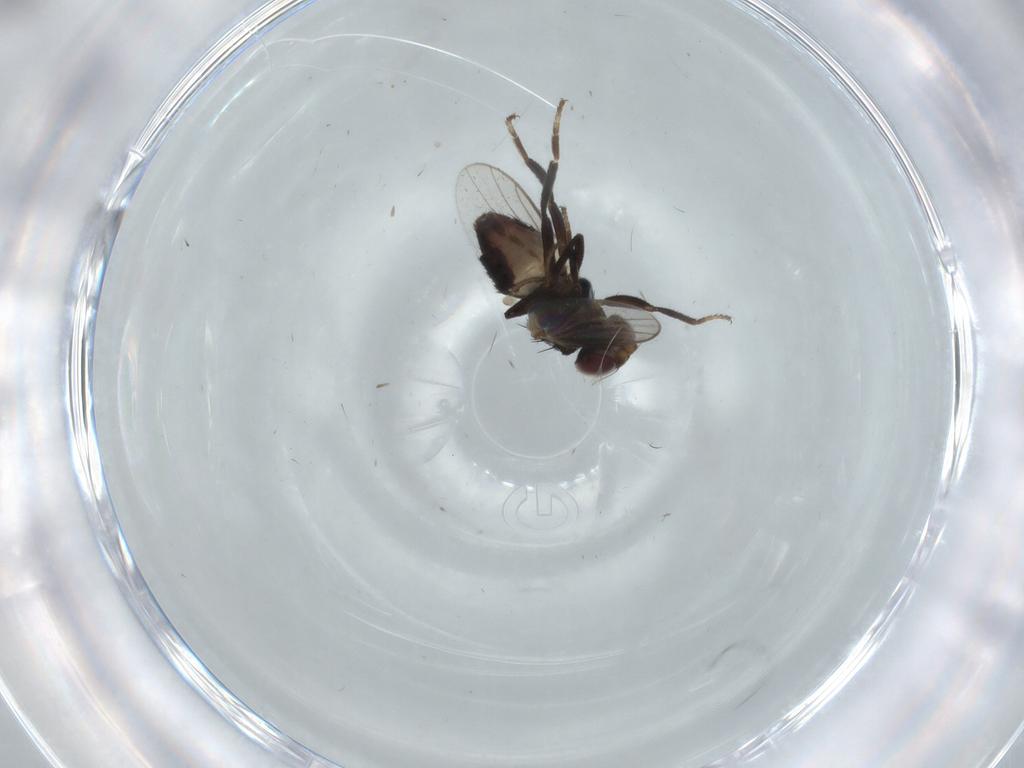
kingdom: Animalia
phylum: Arthropoda
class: Insecta
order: Diptera
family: Chloropidae
